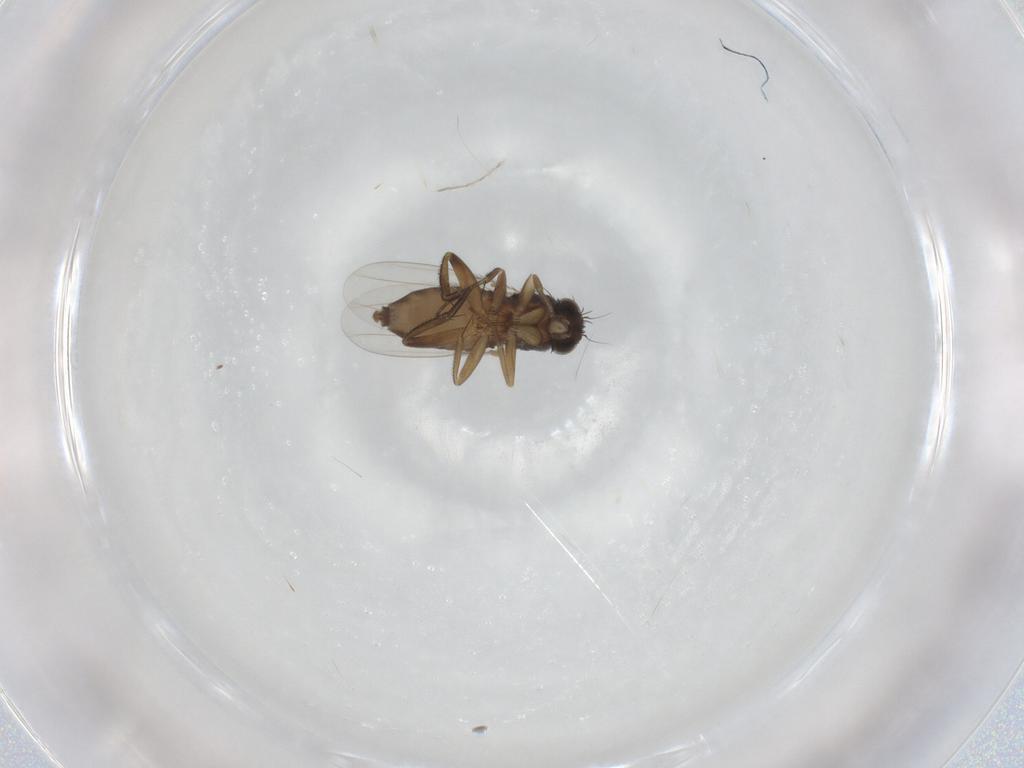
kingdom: Animalia
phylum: Arthropoda
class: Insecta
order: Diptera
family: Phoridae
